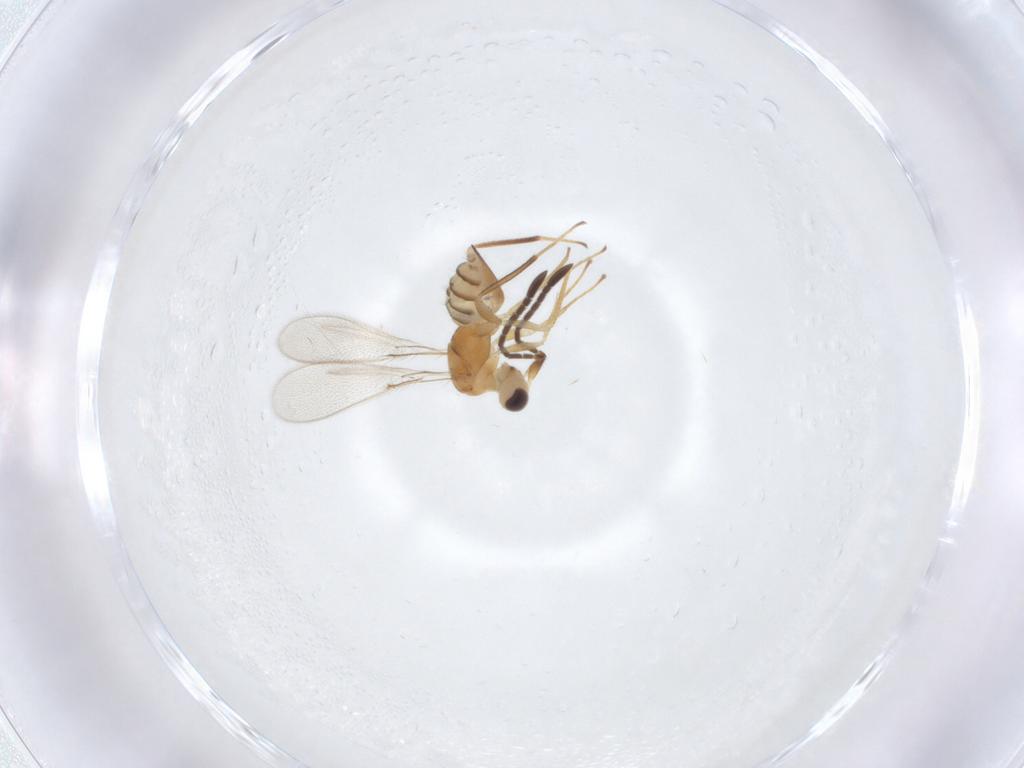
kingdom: Animalia
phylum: Arthropoda
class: Insecta
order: Hymenoptera
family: Mymaridae
